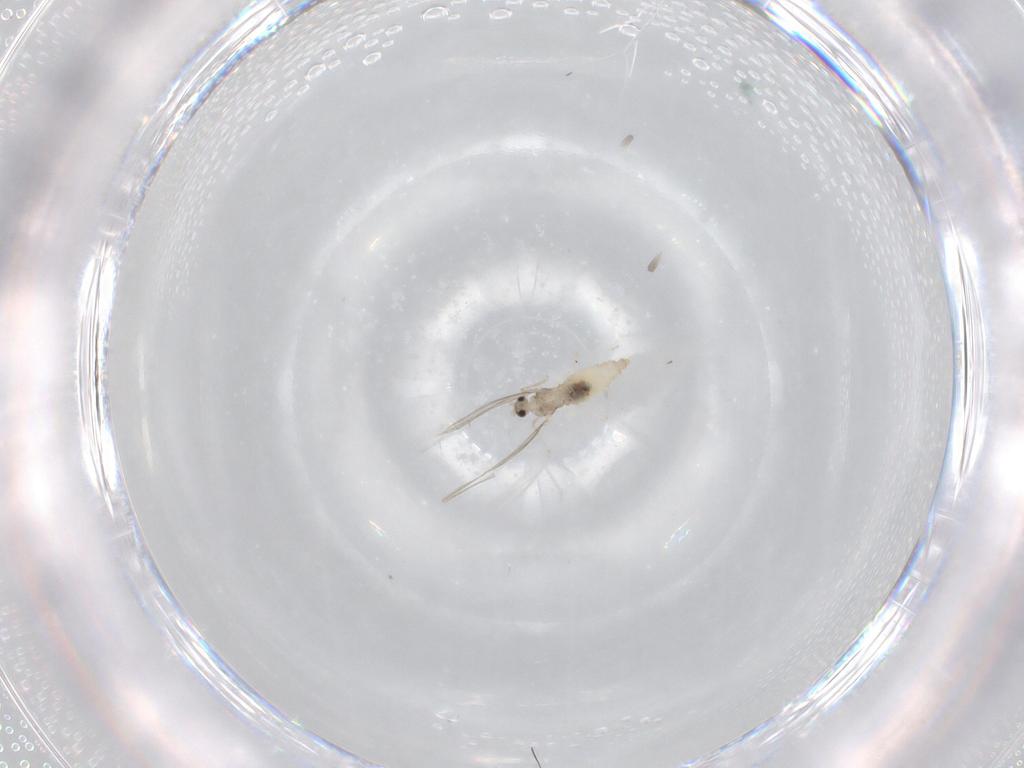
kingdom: Animalia
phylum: Arthropoda
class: Insecta
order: Diptera
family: Cecidomyiidae
